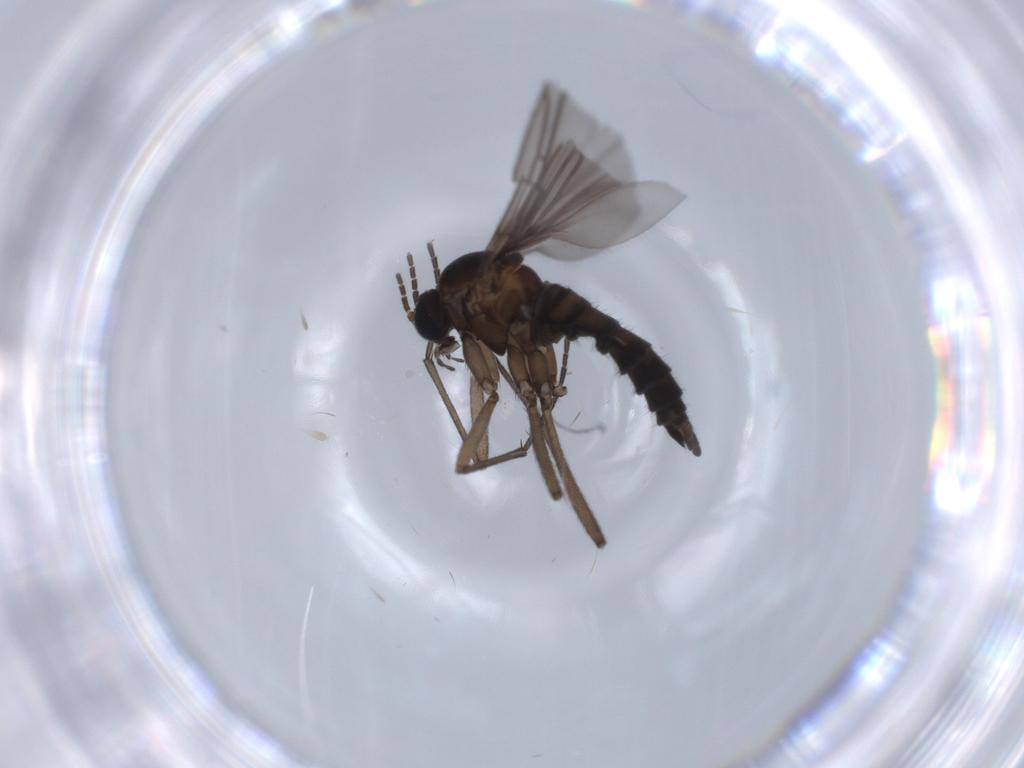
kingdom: Animalia
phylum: Arthropoda
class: Insecta
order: Diptera
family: Sciaridae
